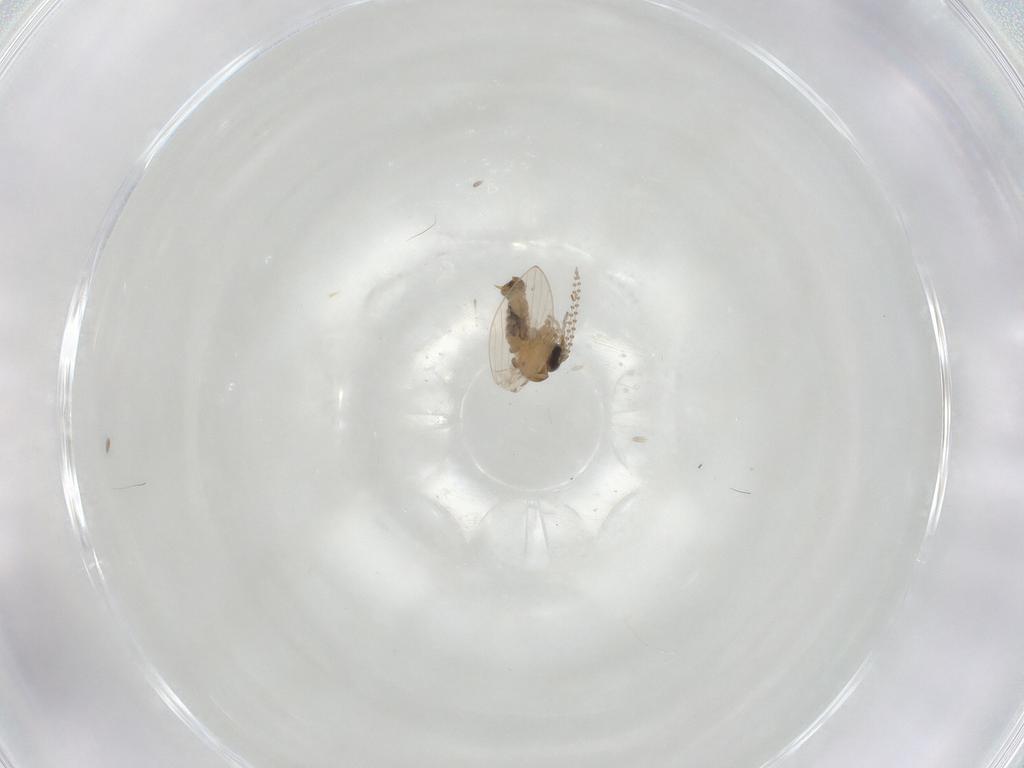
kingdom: Animalia
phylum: Arthropoda
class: Insecta
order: Diptera
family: Psychodidae
